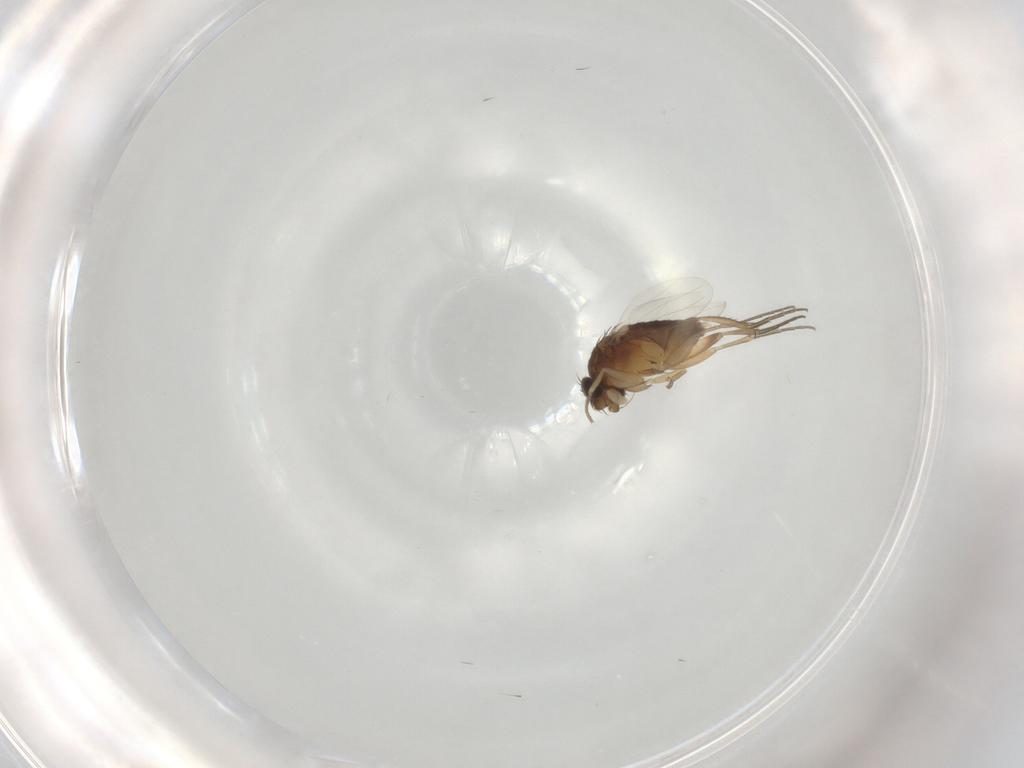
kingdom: Animalia
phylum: Arthropoda
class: Insecta
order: Diptera
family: Phoridae
